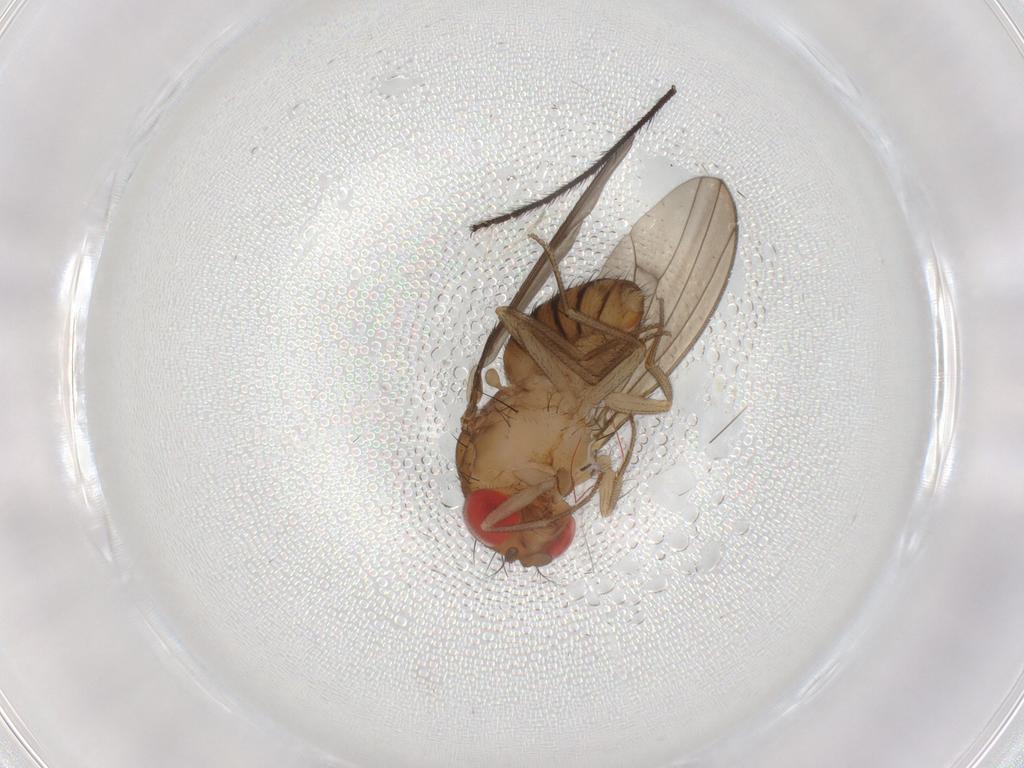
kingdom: Animalia
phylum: Arthropoda
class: Insecta
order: Diptera
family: Drosophilidae
